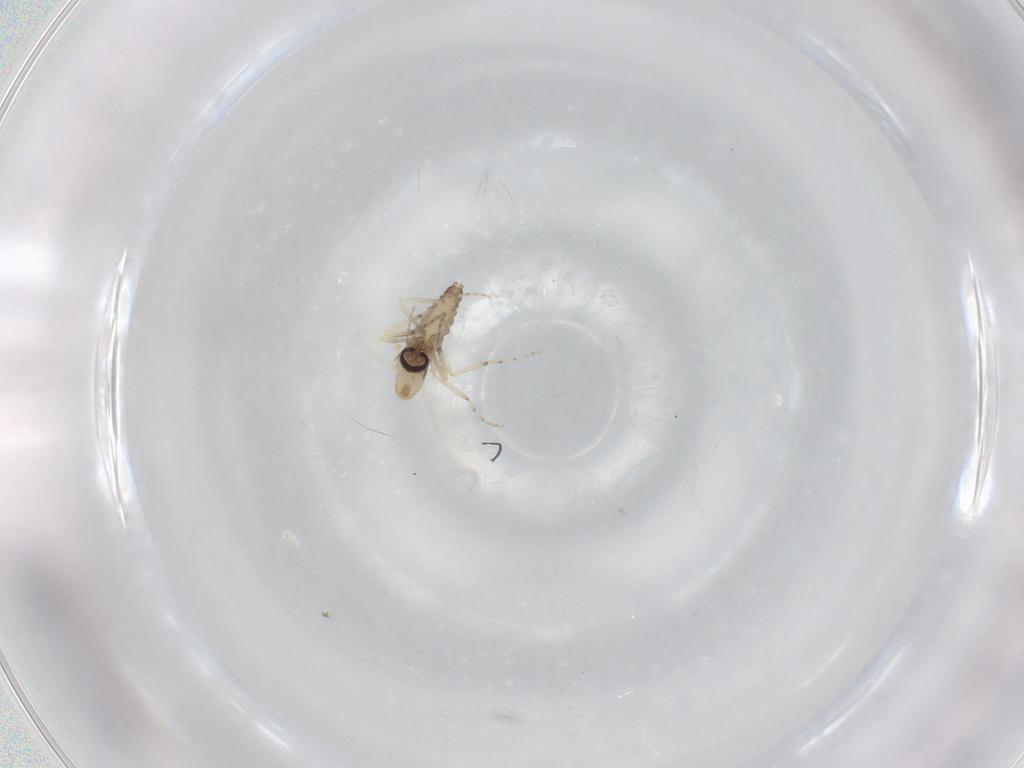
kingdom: Animalia
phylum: Arthropoda
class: Insecta
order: Diptera
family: Ceratopogonidae
